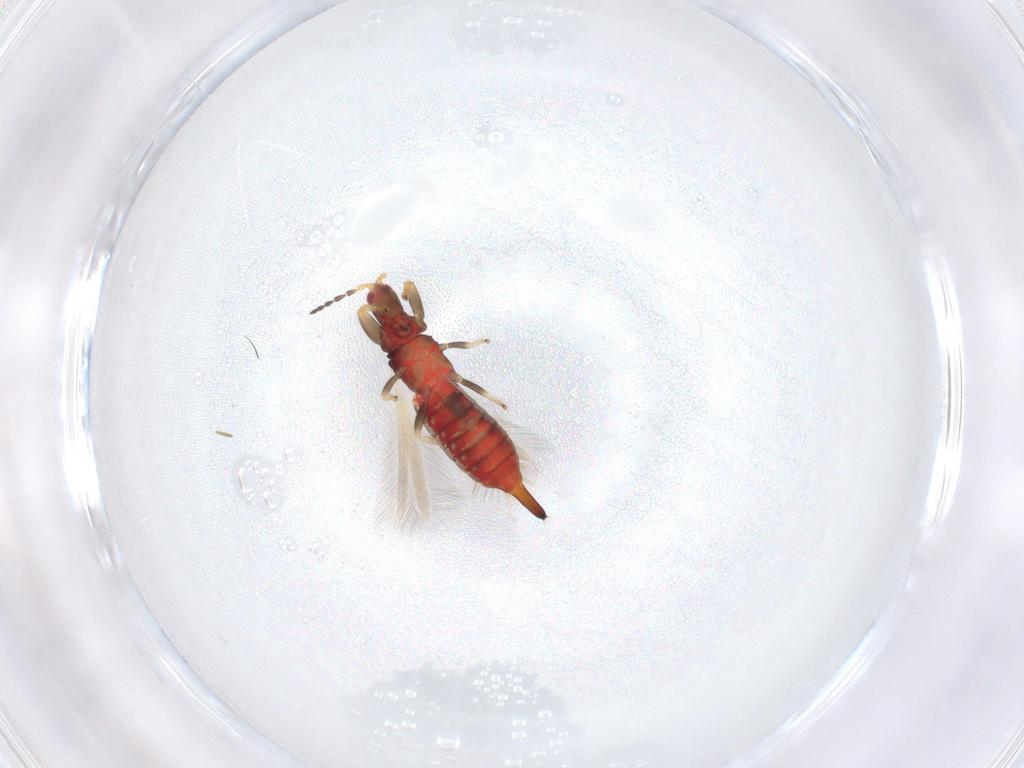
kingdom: Animalia
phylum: Arthropoda
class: Insecta
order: Thysanoptera
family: Phlaeothripidae
